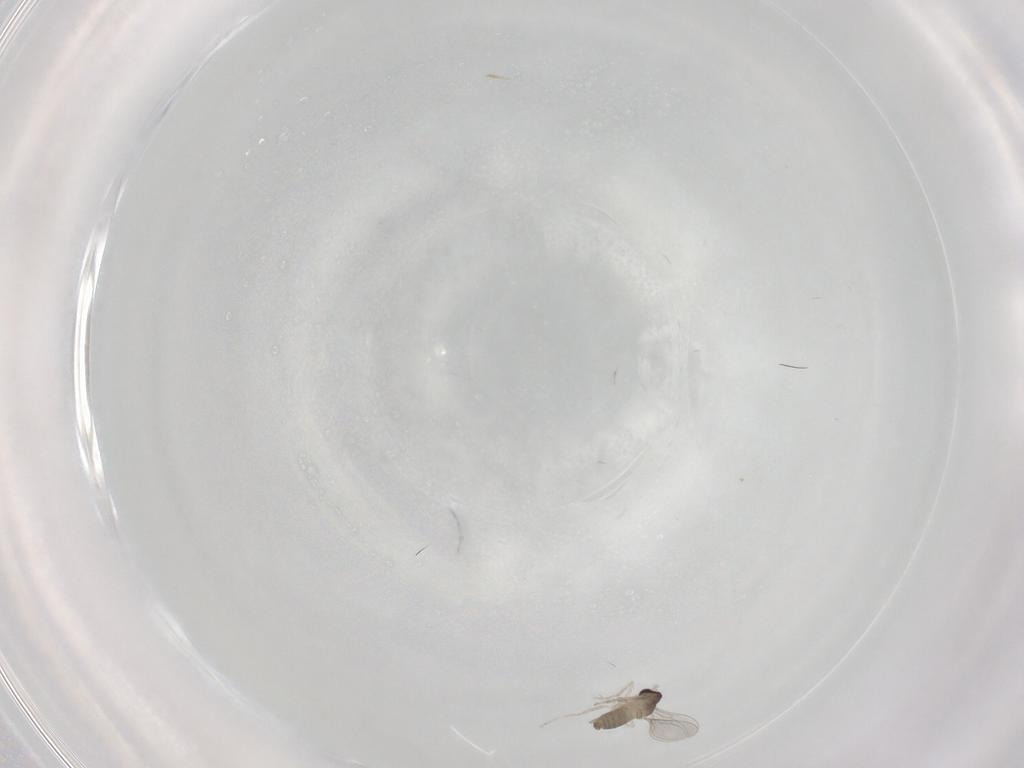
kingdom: Animalia
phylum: Arthropoda
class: Insecta
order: Diptera
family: Cecidomyiidae
